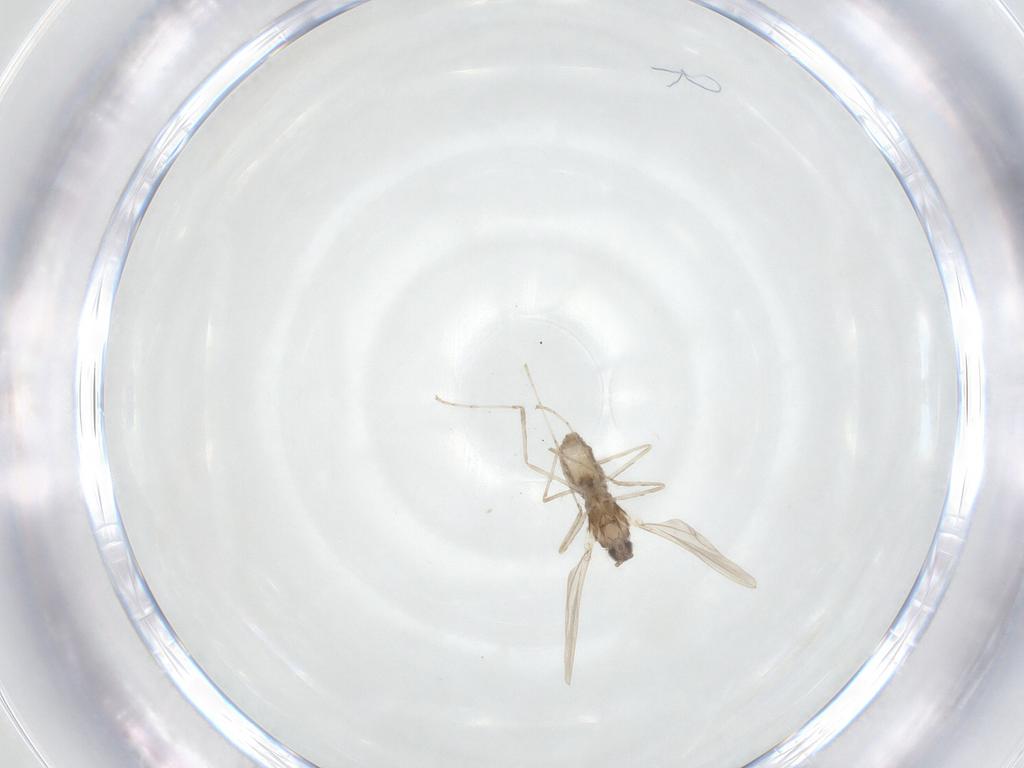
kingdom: Animalia
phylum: Arthropoda
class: Insecta
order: Diptera
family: Cecidomyiidae
